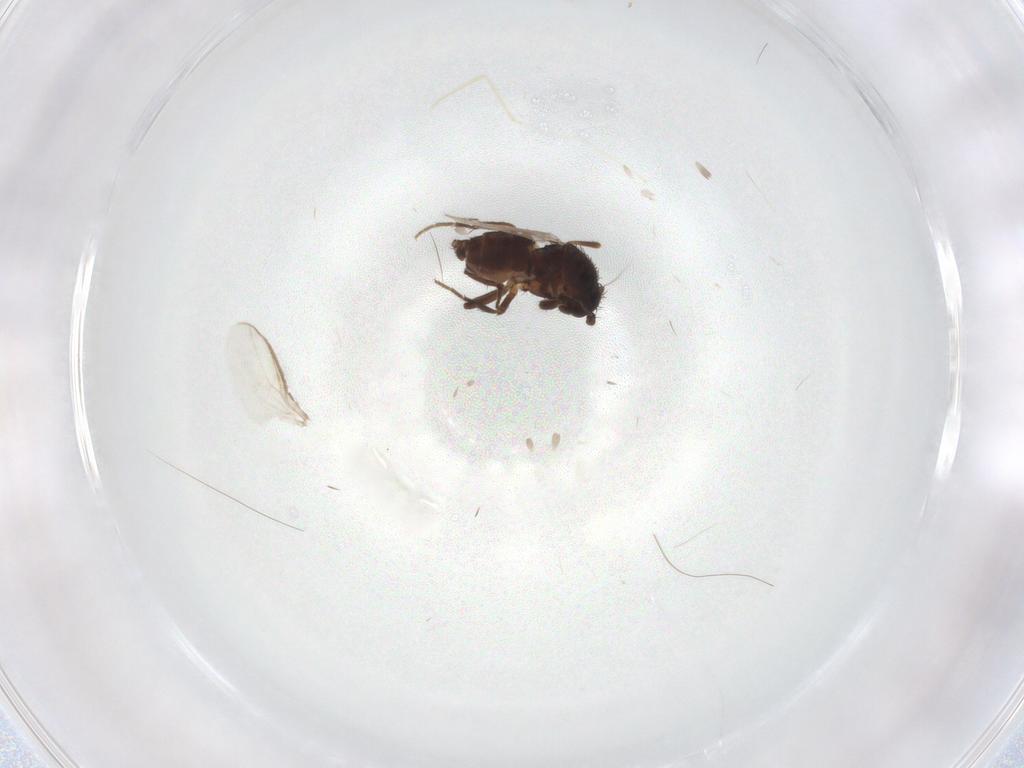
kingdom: Animalia
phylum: Arthropoda
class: Insecta
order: Diptera
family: Sphaeroceridae
